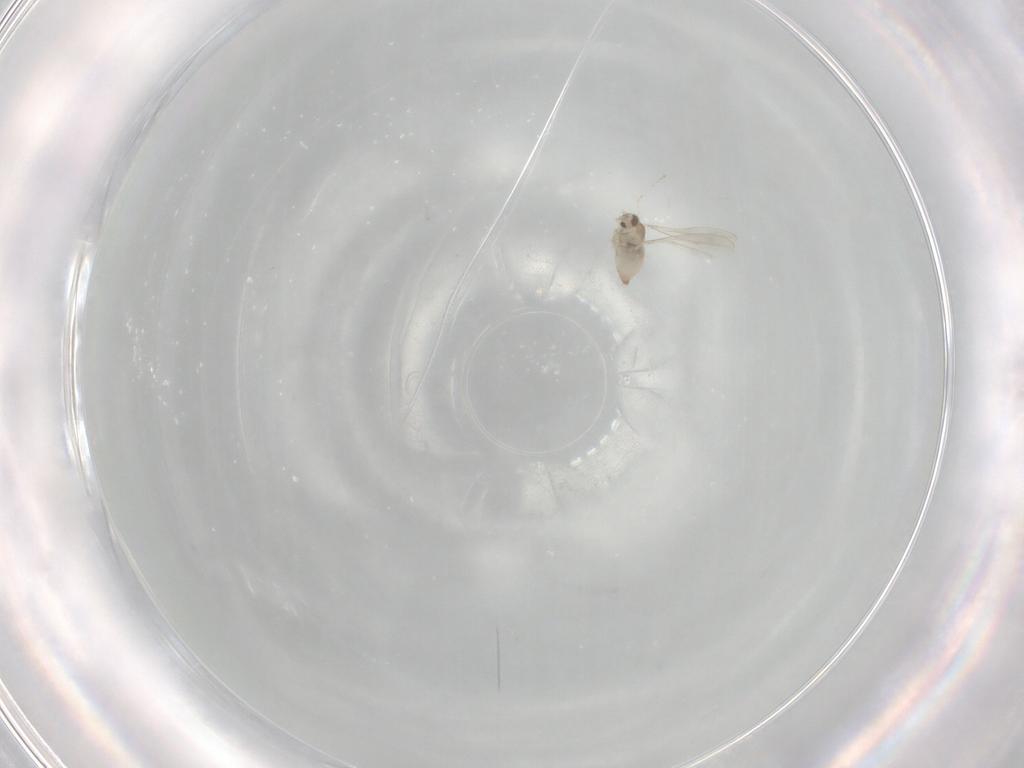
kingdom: Animalia
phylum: Arthropoda
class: Insecta
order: Diptera
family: Cecidomyiidae
